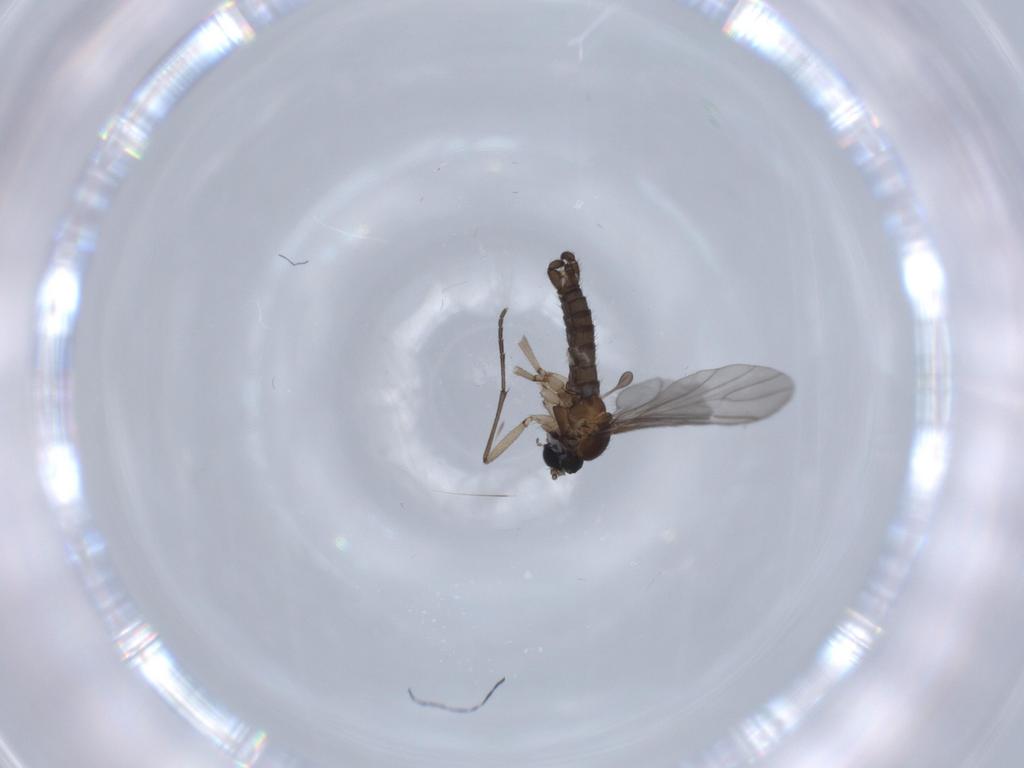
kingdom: Animalia
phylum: Arthropoda
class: Insecta
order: Diptera
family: Sciaridae
